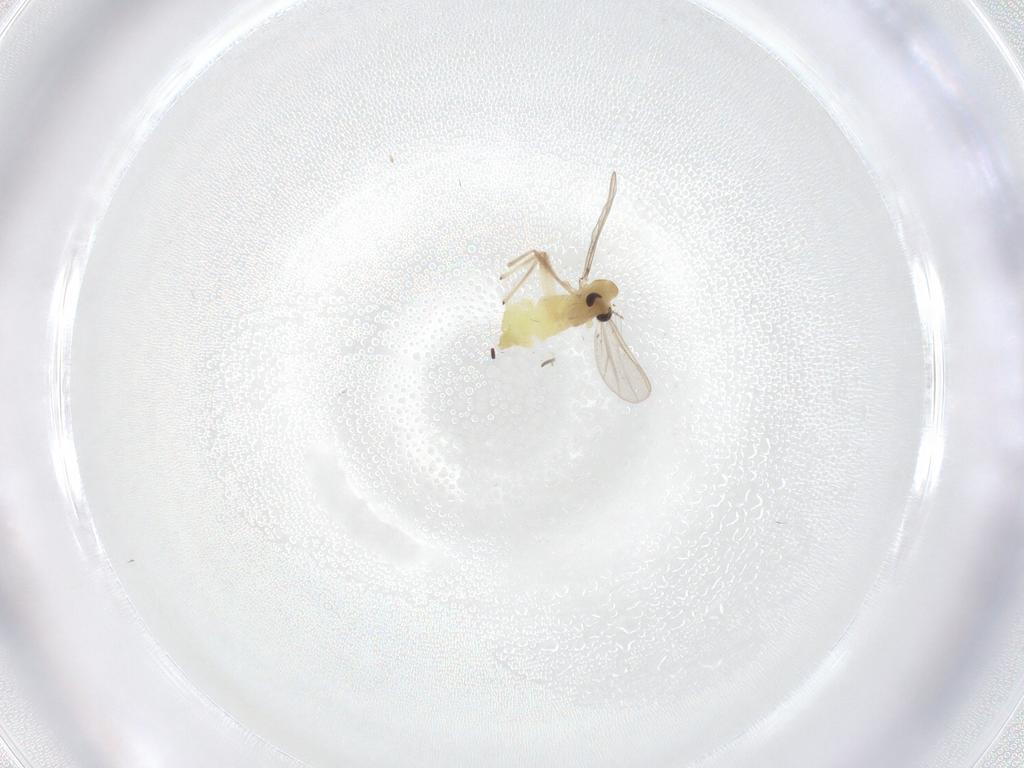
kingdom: Animalia
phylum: Arthropoda
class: Insecta
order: Diptera
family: Chironomidae
